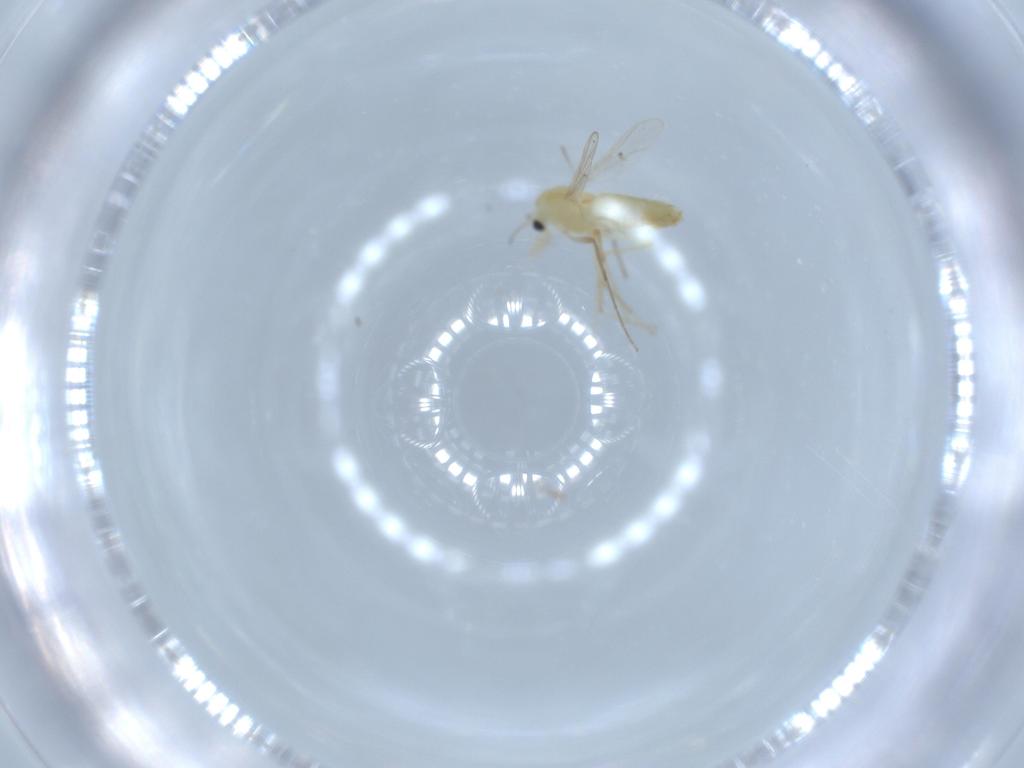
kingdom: Animalia
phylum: Arthropoda
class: Insecta
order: Diptera
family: Chironomidae
